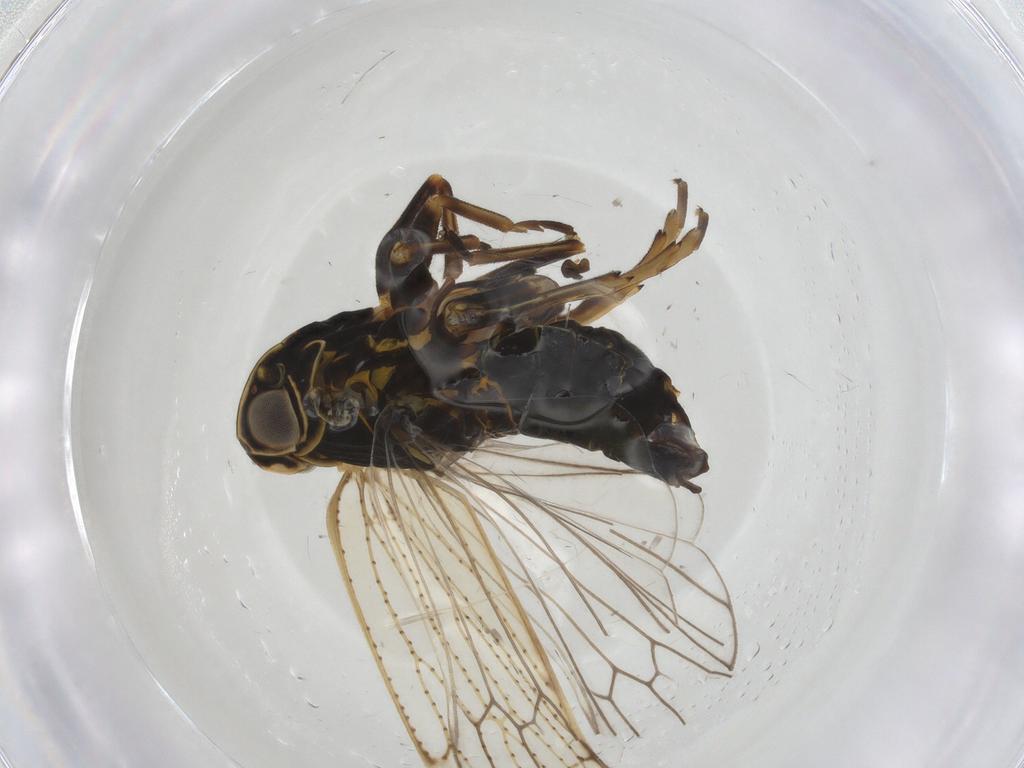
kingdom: Animalia
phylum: Arthropoda
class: Insecta
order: Hemiptera
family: Cixiidae
